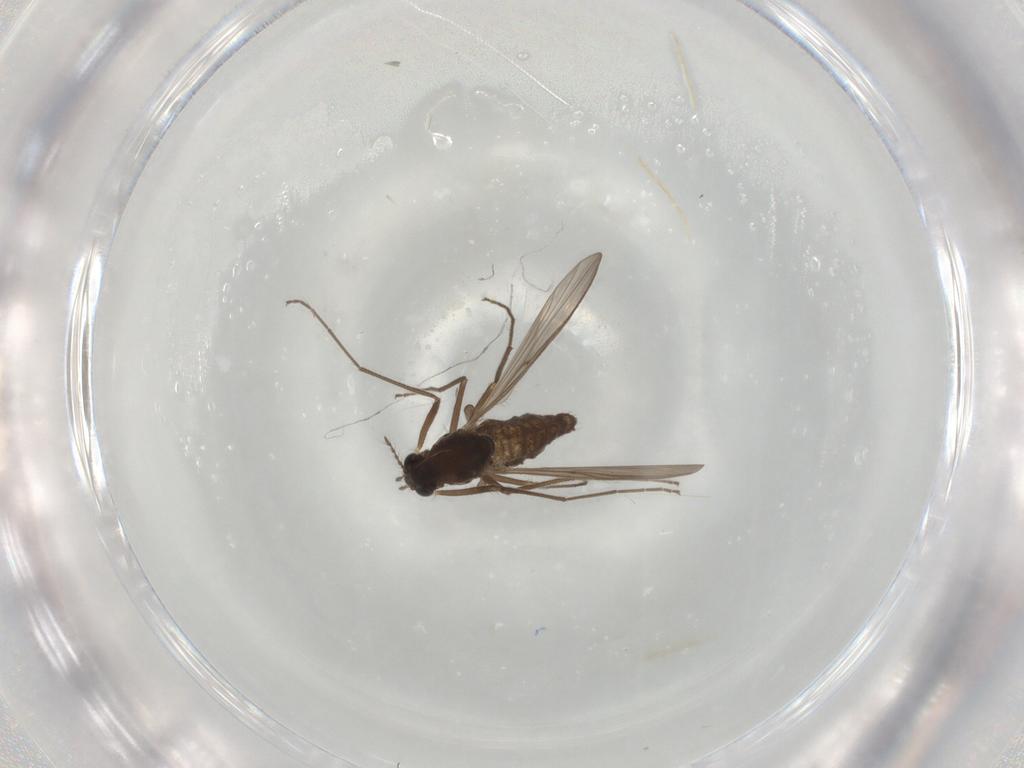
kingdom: Animalia
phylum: Arthropoda
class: Insecta
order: Diptera
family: Chironomidae
